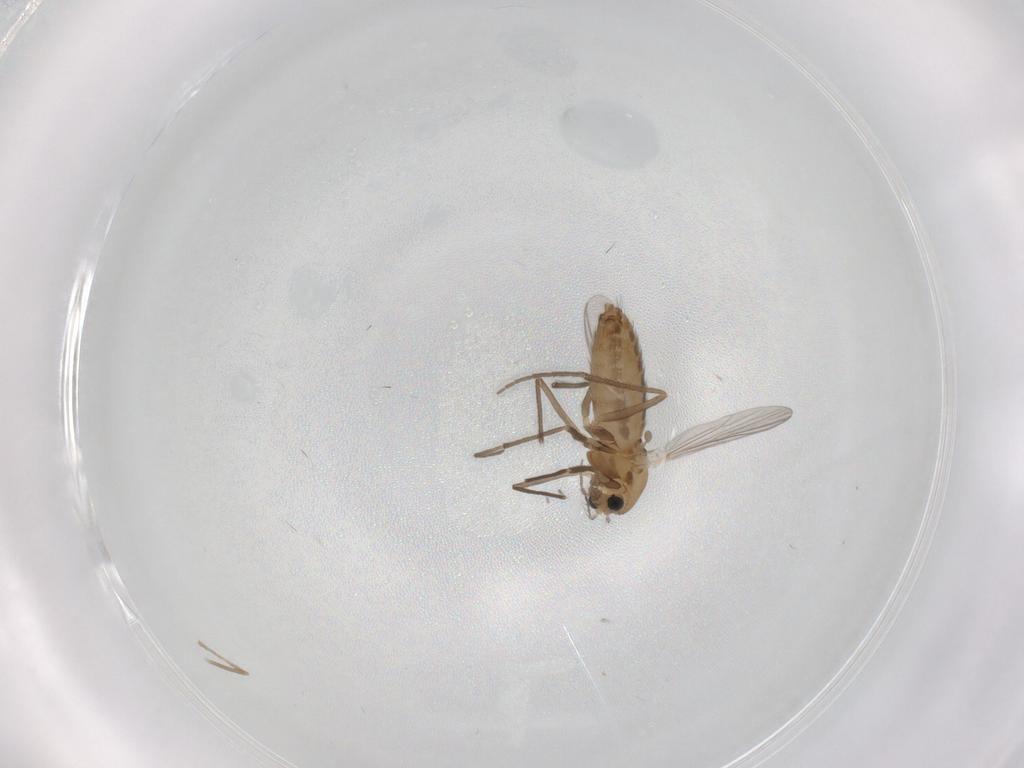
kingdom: Animalia
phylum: Arthropoda
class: Insecta
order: Diptera
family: Chironomidae
